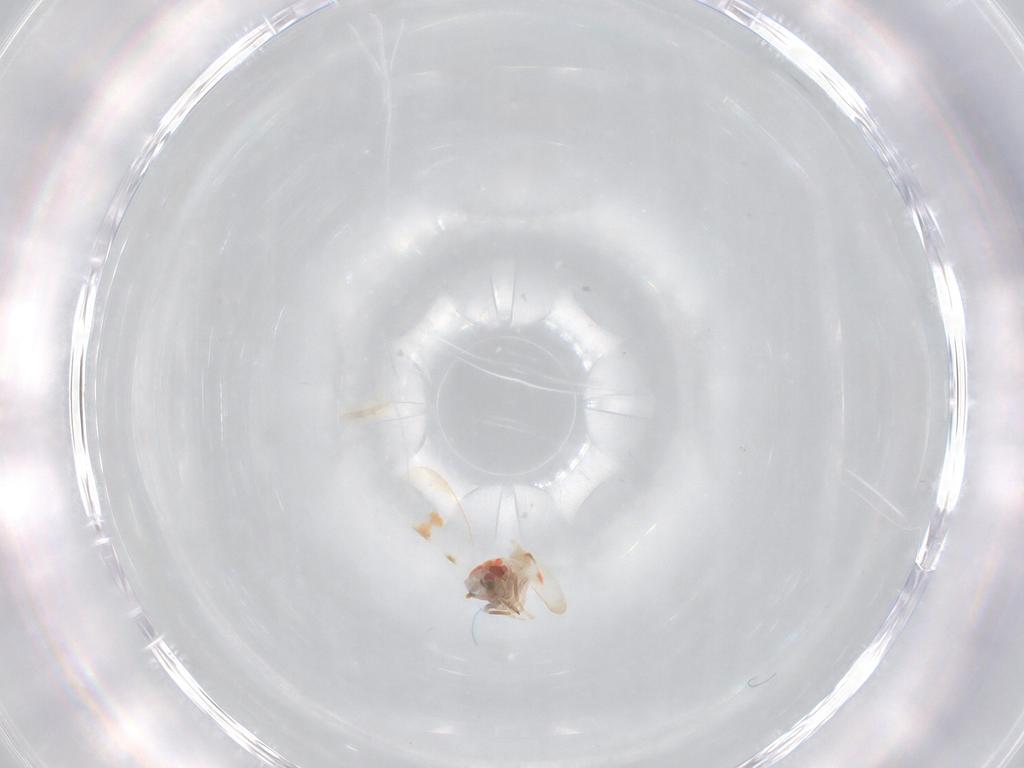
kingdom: Animalia
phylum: Arthropoda
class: Insecta
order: Hemiptera
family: Aleyrodidae
